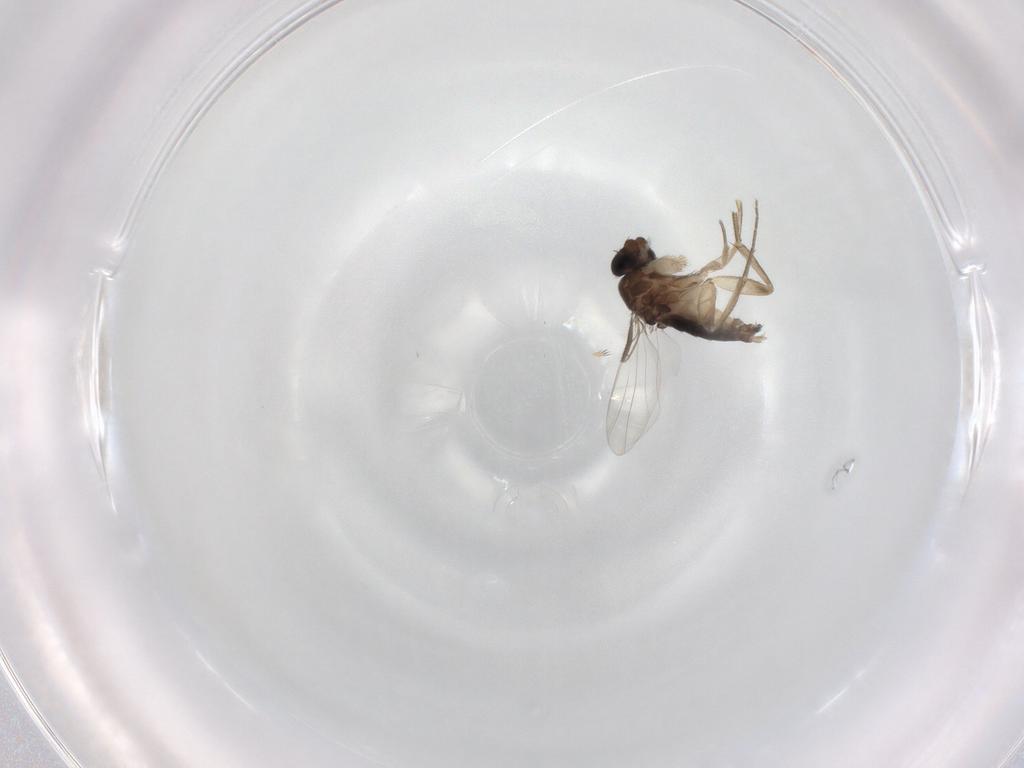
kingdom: Animalia
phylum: Arthropoda
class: Insecta
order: Diptera
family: Phoridae
